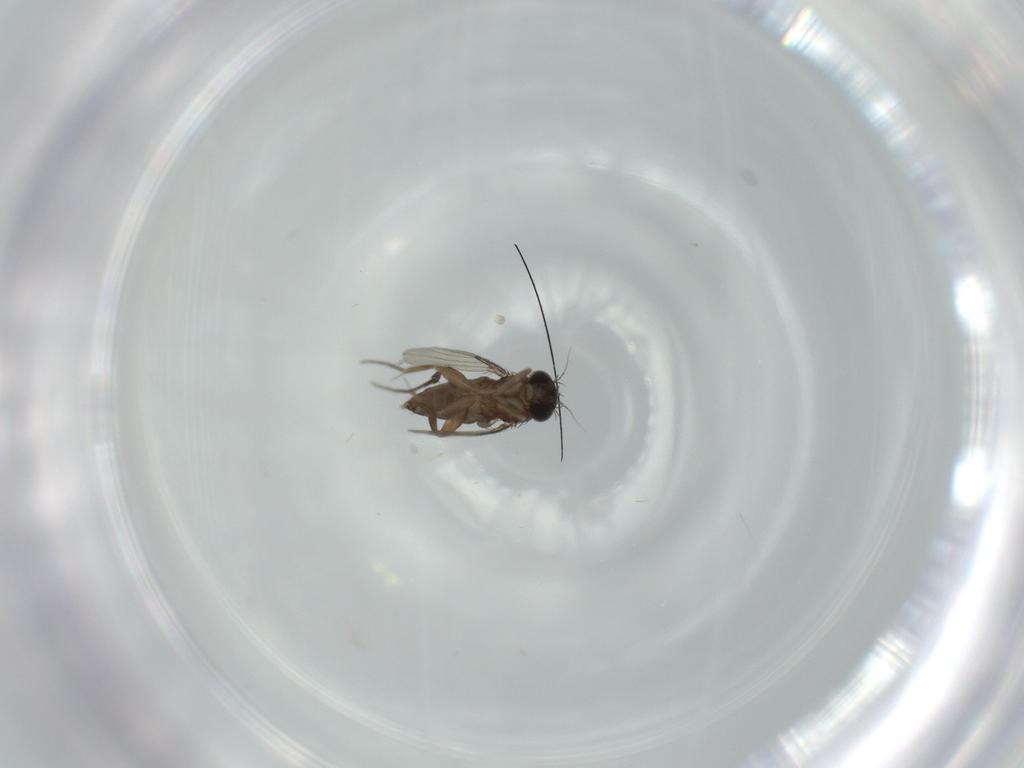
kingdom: Animalia
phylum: Arthropoda
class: Insecta
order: Diptera
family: Phoridae
